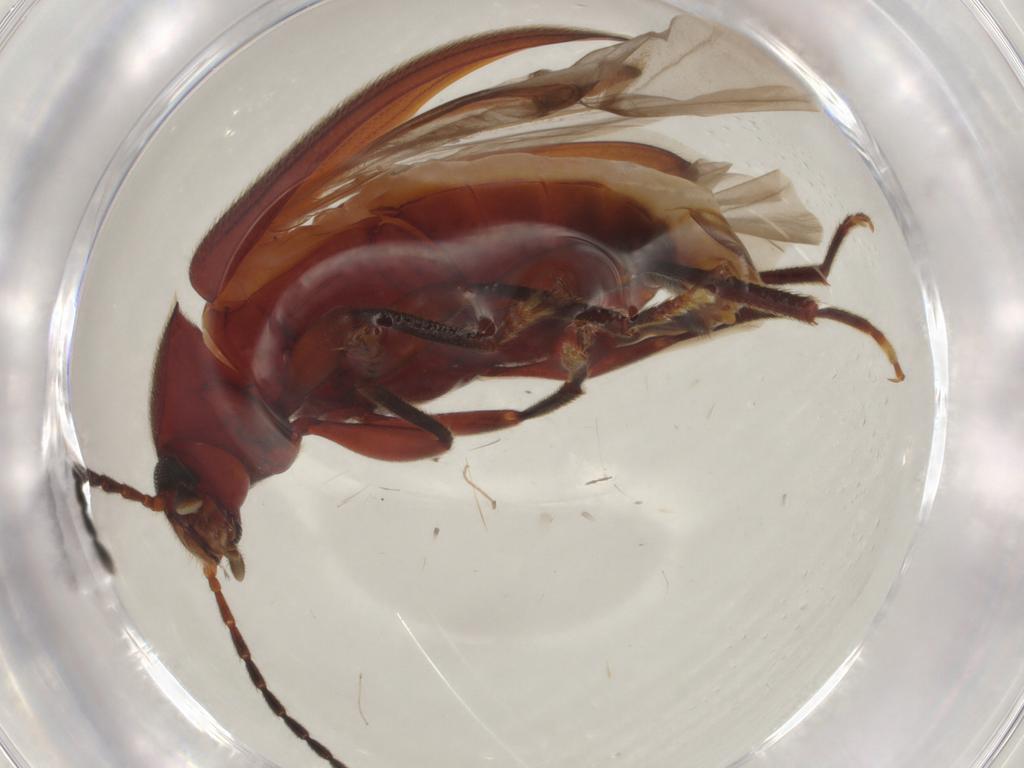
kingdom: Animalia
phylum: Arthropoda
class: Insecta
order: Coleoptera
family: Tenebrionidae
